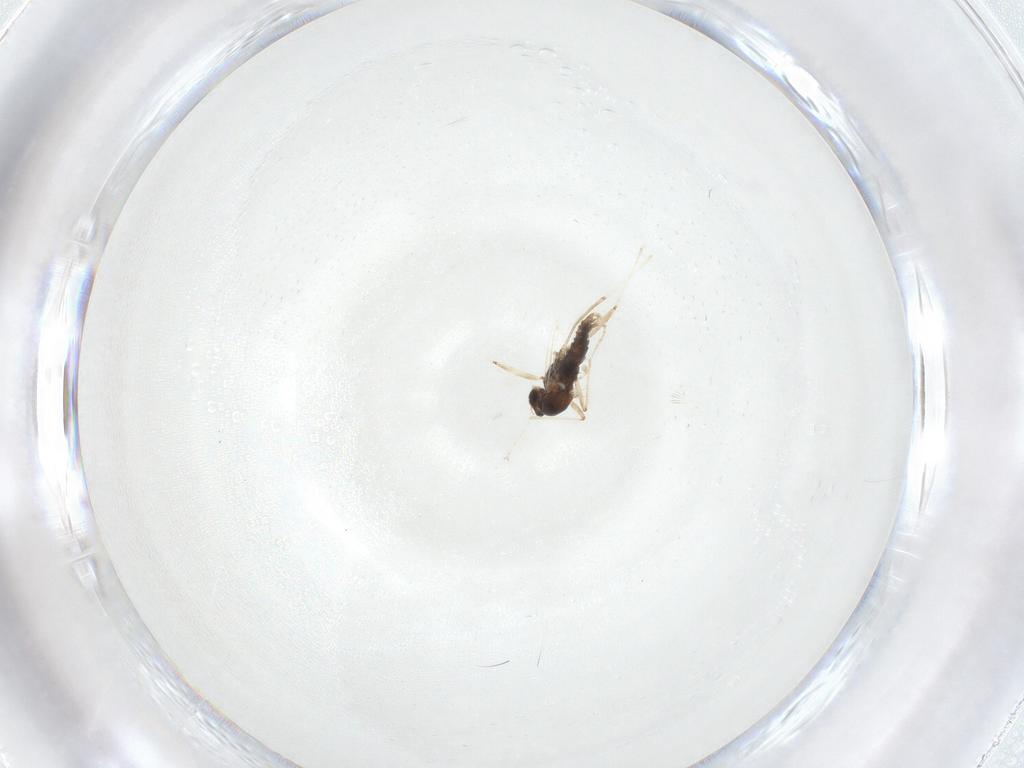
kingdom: Animalia
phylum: Arthropoda
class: Insecta
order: Diptera
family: Cecidomyiidae
